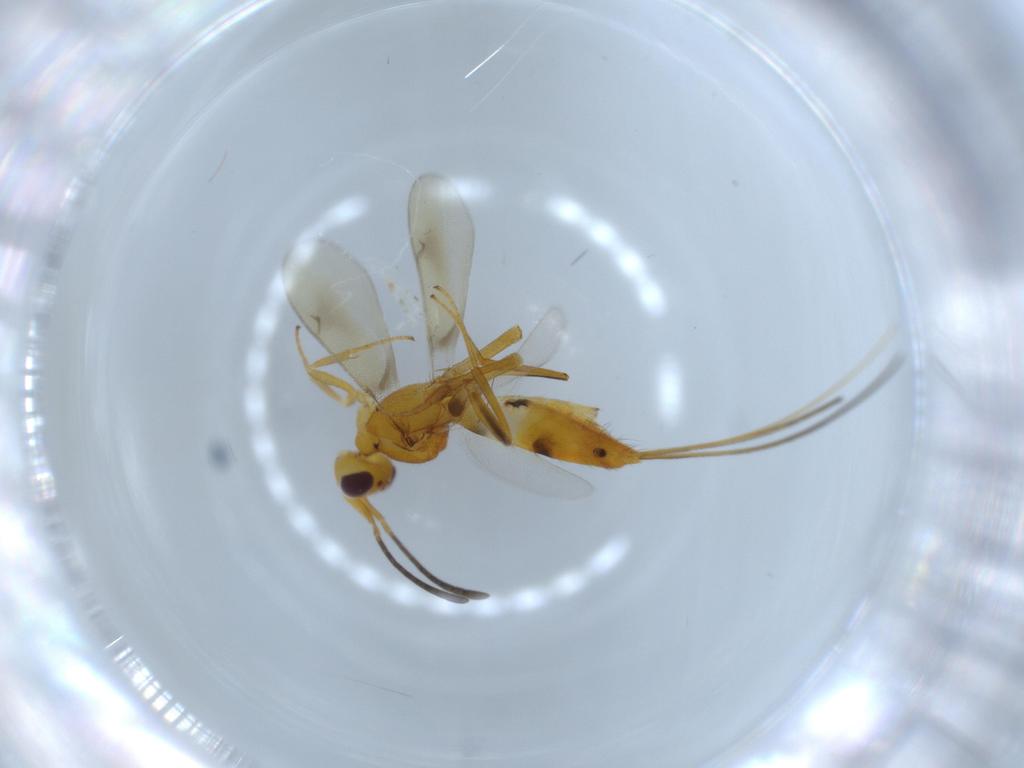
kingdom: Animalia
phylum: Arthropoda
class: Insecta
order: Hymenoptera
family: Eupelmidae
